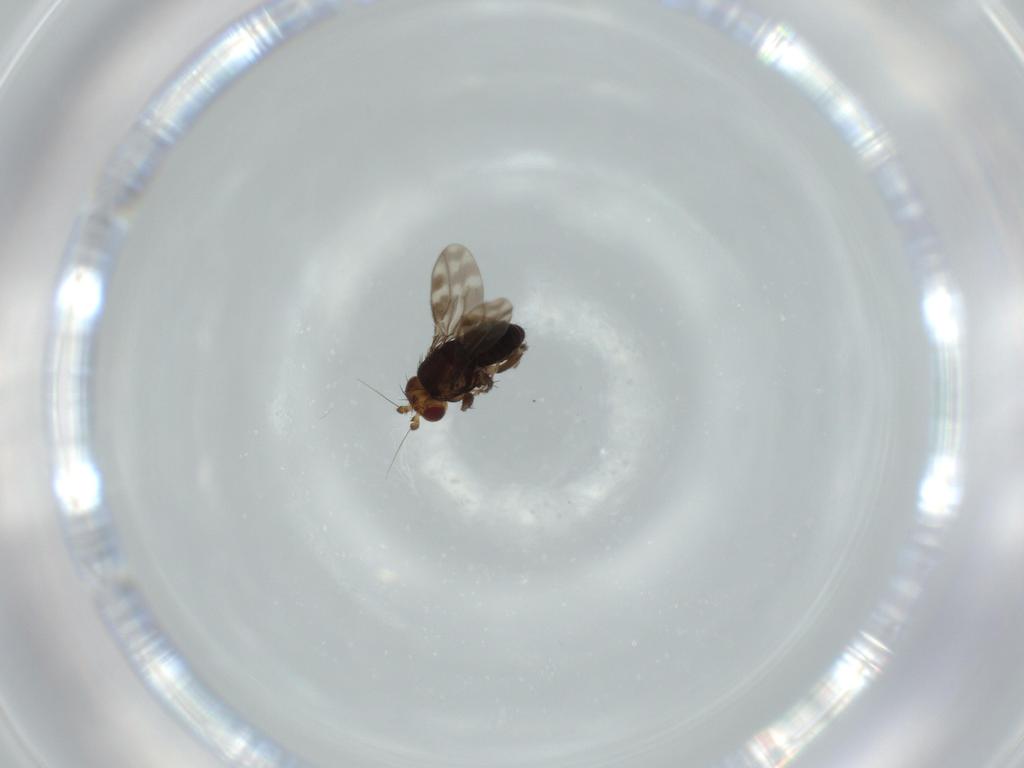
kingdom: Animalia
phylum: Arthropoda
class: Insecta
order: Diptera
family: Sphaeroceridae
